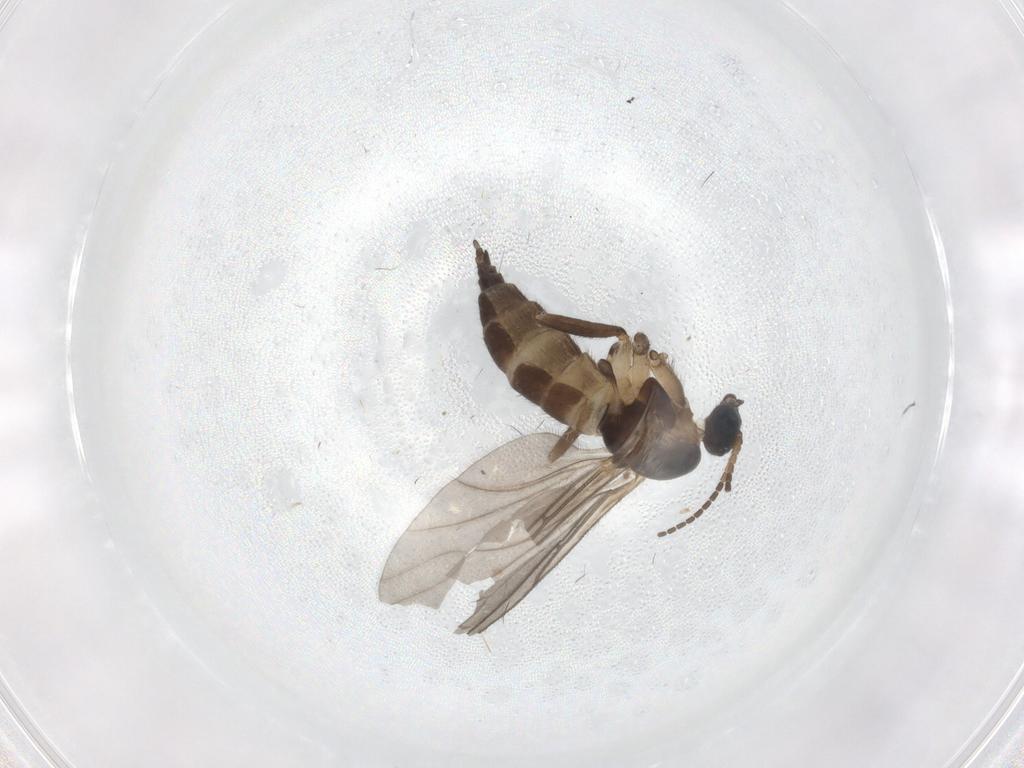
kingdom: Animalia
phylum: Arthropoda
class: Insecta
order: Diptera
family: Sciaridae
